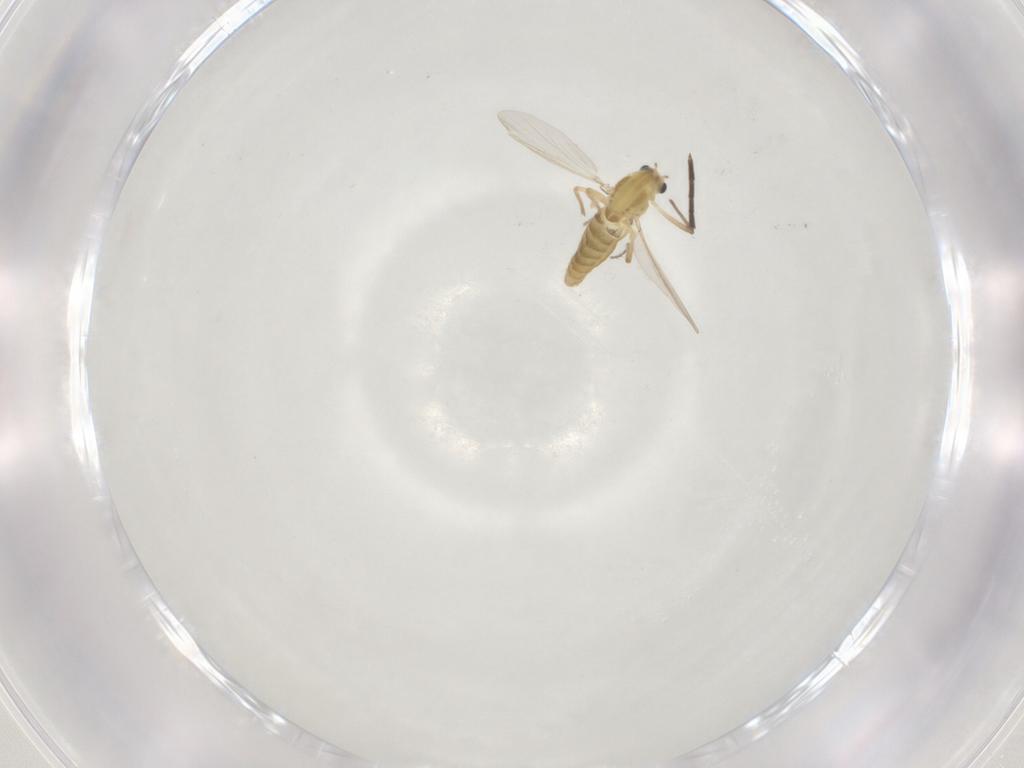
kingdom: Animalia
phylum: Arthropoda
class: Insecta
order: Diptera
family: Chironomidae
